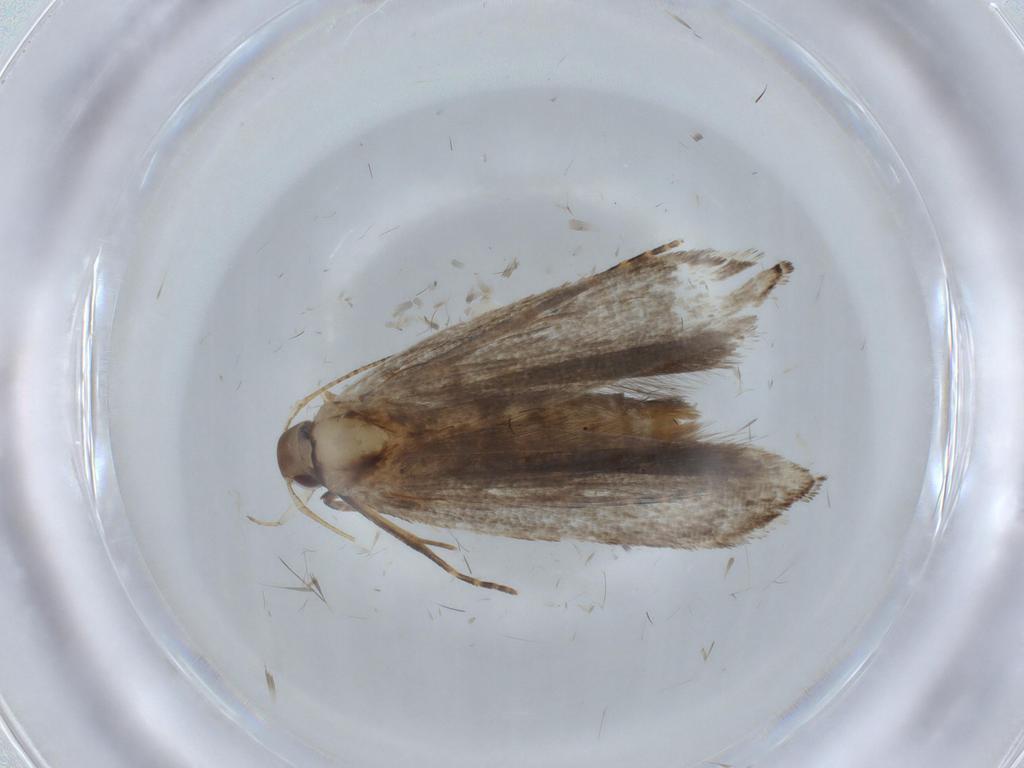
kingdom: Animalia
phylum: Arthropoda
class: Insecta
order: Lepidoptera
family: Gelechiidae
